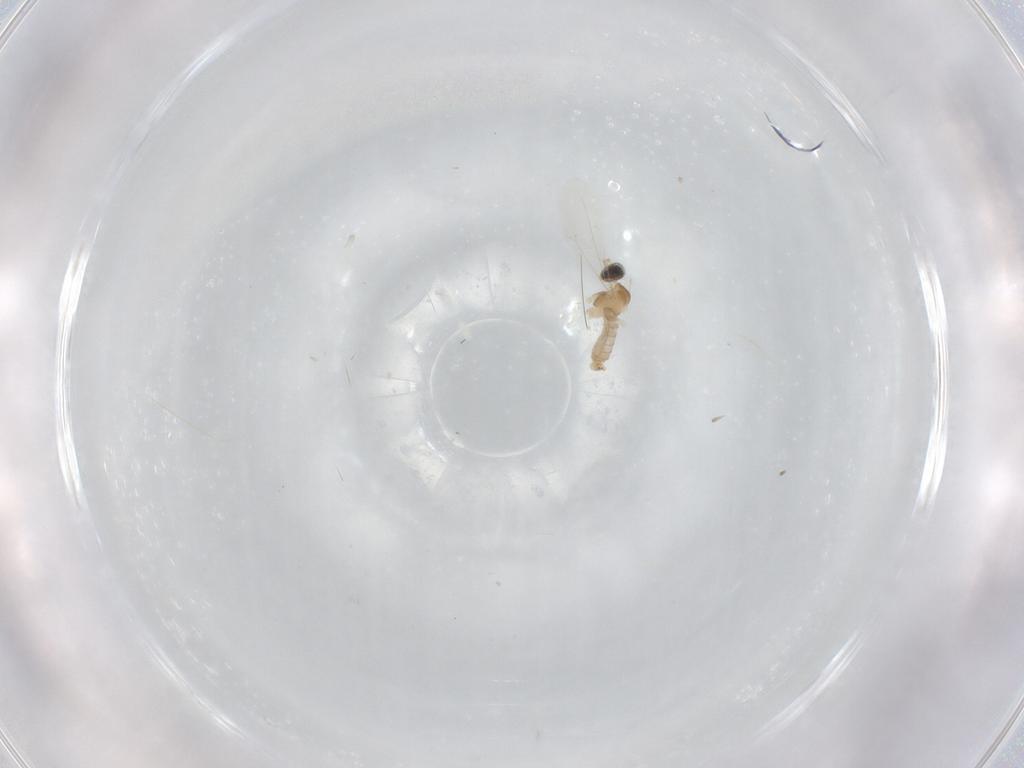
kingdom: Animalia
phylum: Arthropoda
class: Insecta
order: Diptera
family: Cecidomyiidae
